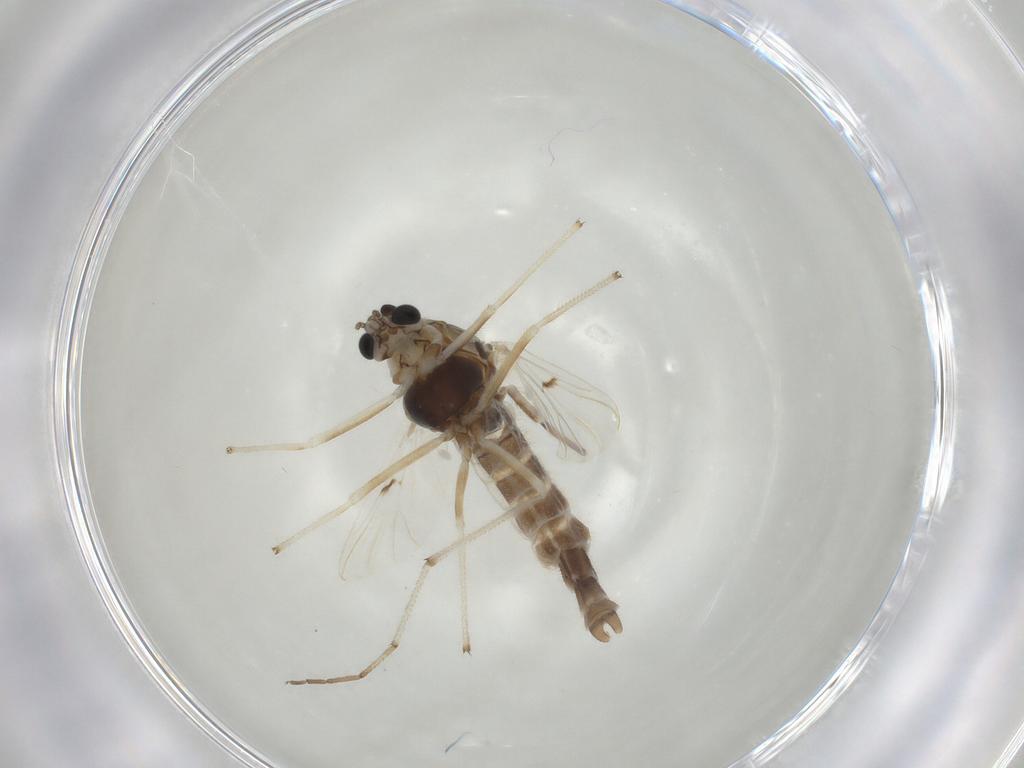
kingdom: Animalia
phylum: Arthropoda
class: Insecta
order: Diptera
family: Chironomidae
